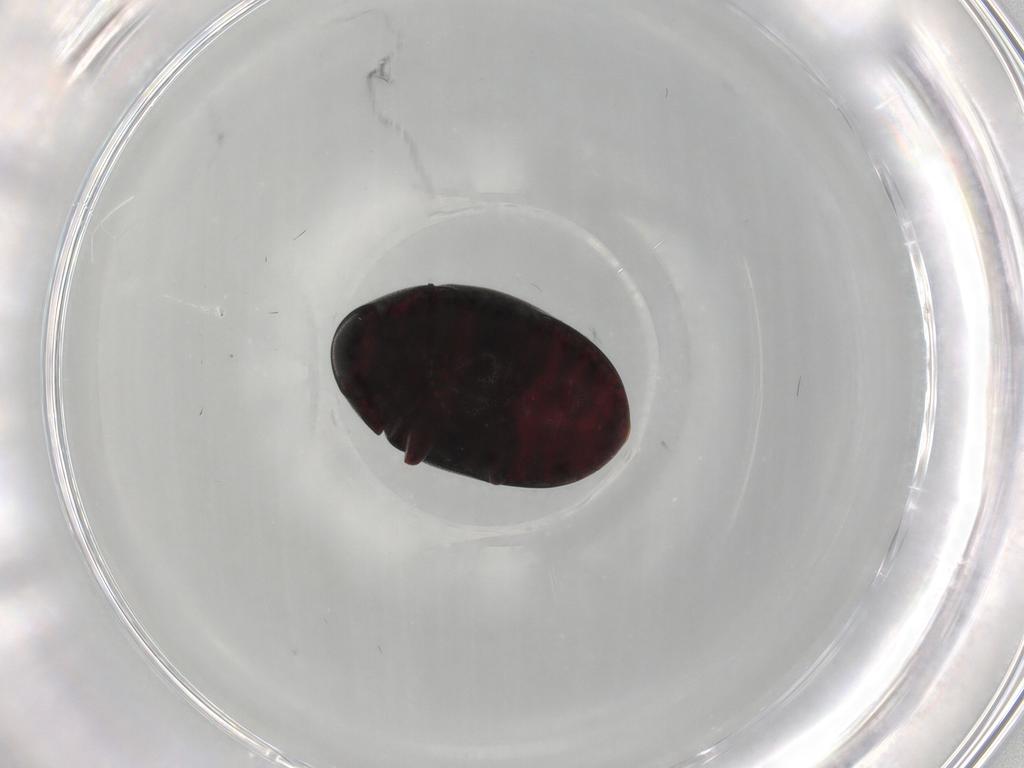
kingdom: Animalia
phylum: Arthropoda
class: Insecta
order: Coleoptera
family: Ptinidae
